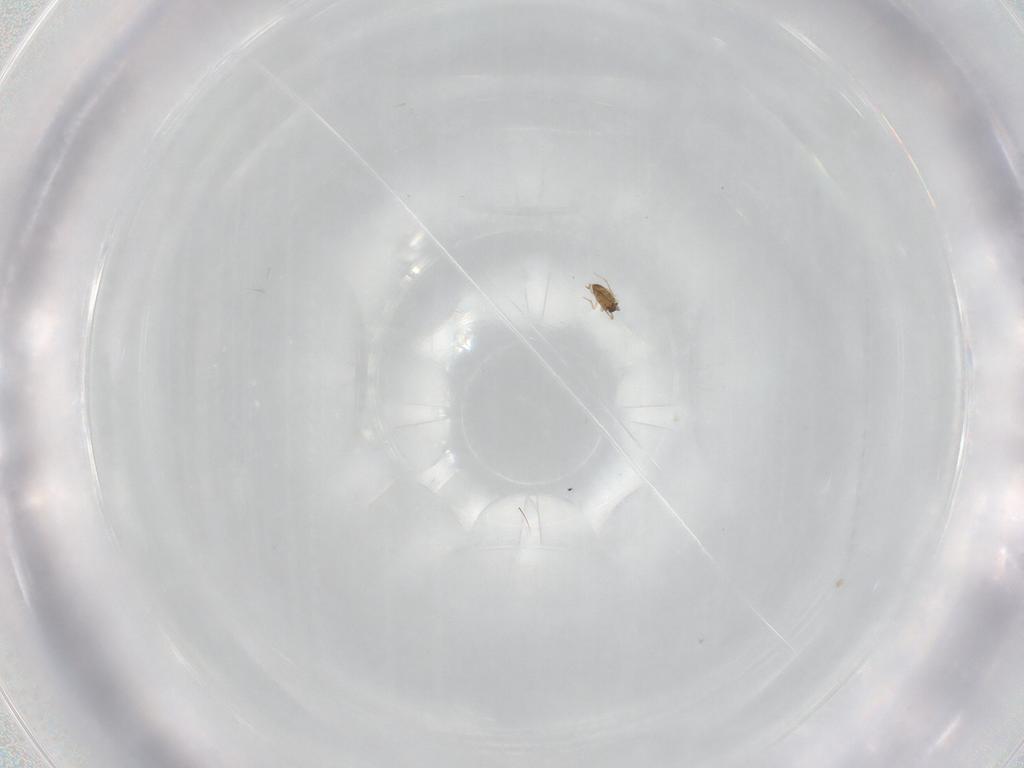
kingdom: Animalia
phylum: Arthropoda
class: Insecta
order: Hymenoptera
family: Mymaridae
